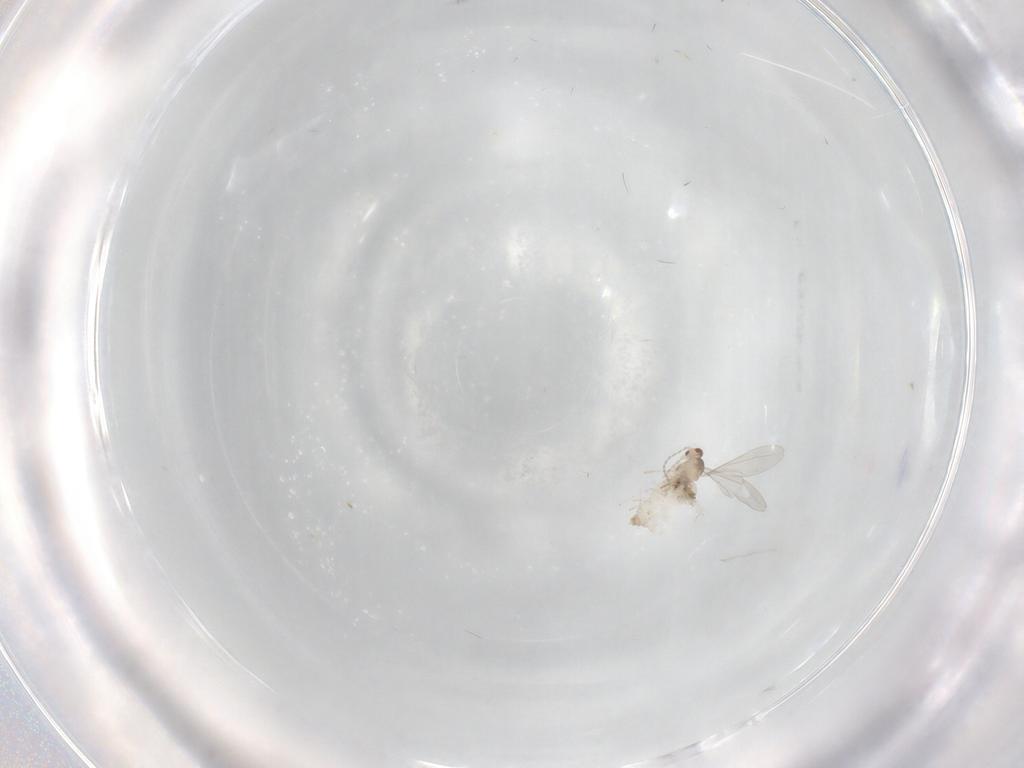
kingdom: Animalia
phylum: Arthropoda
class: Insecta
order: Diptera
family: Cecidomyiidae
